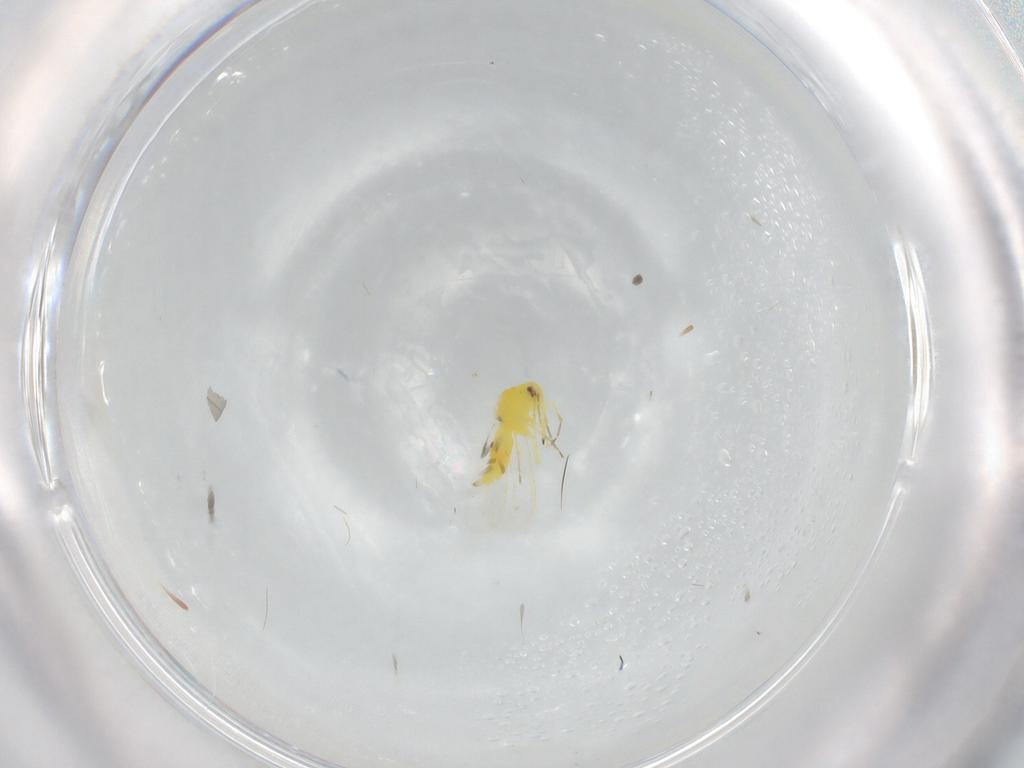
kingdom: Animalia
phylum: Arthropoda
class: Insecta
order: Hemiptera
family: Aleyrodidae
